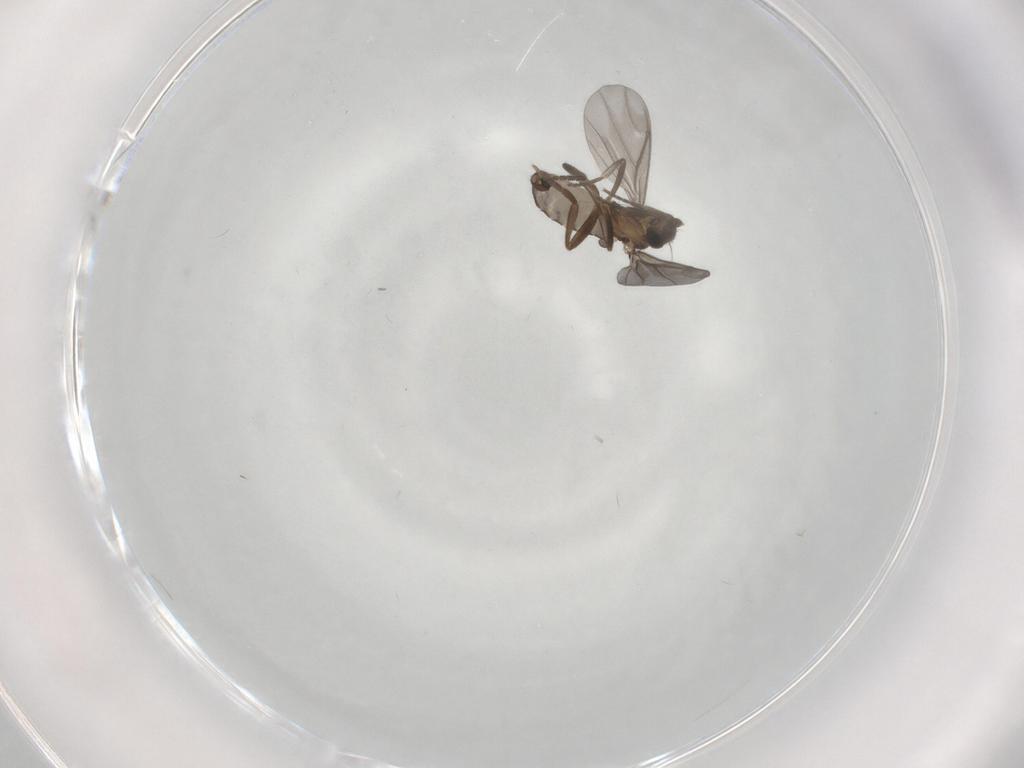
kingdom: Animalia
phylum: Arthropoda
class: Insecta
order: Diptera
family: Phoridae
